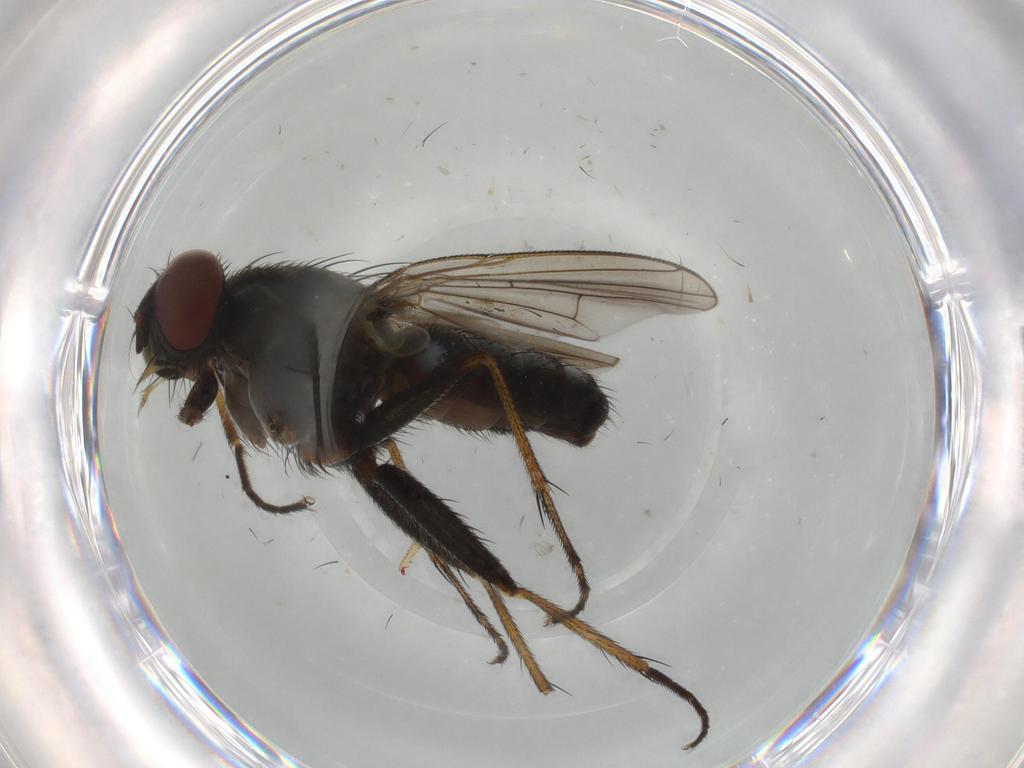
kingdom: Animalia
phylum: Arthropoda
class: Insecta
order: Diptera
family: Muscidae
